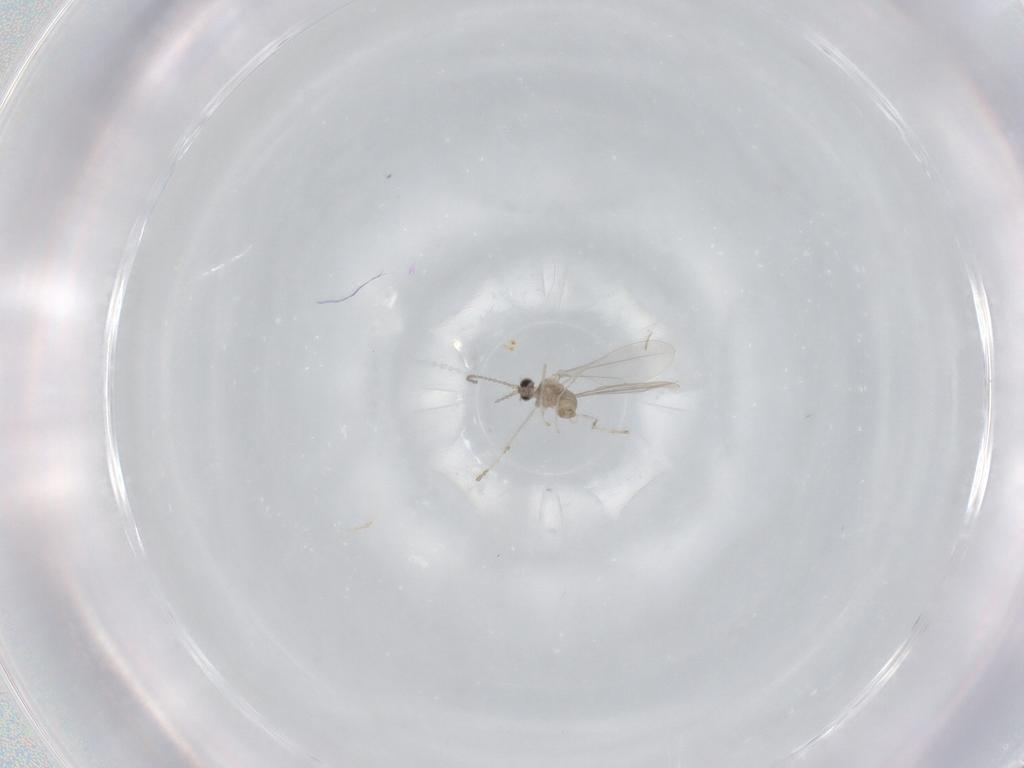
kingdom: Animalia
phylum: Arthropoda
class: Insecta
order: Diptera
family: Cecidomyiidae
